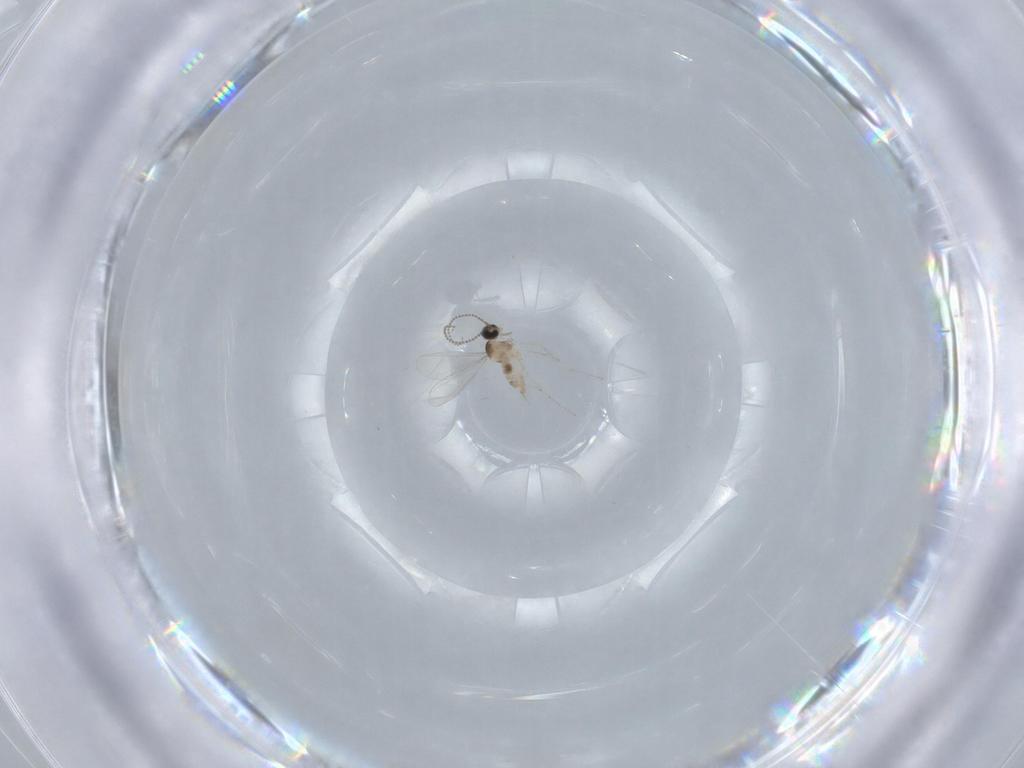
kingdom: Animalia
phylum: Arthropoda
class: Insecta
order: Diptera
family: Cecidomyiidae
